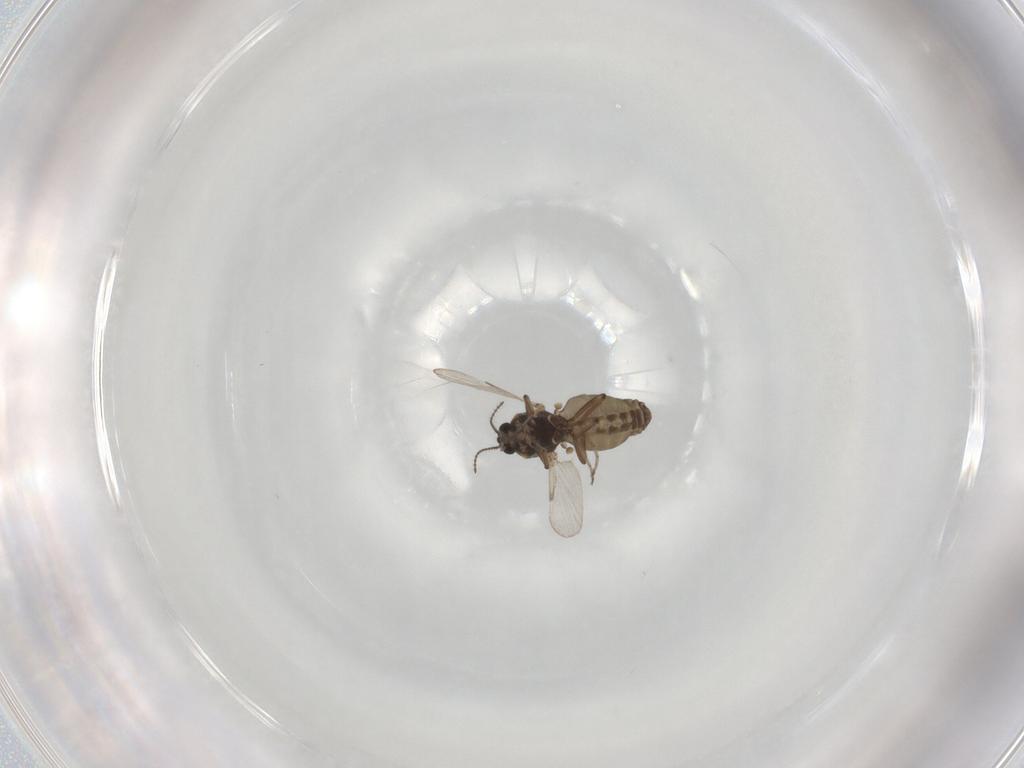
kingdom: Animalia
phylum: Arthropoda
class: Insecta
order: Diptera
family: Ceratopogonidae
